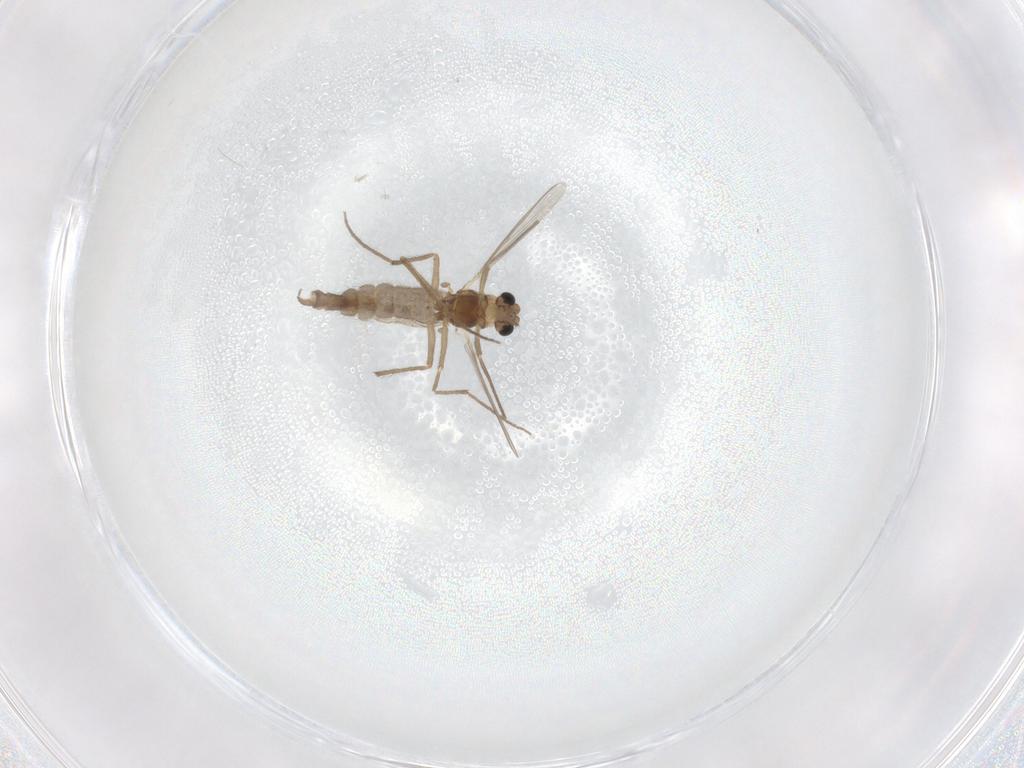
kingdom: Animalia
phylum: Arthropoda
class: Insecta
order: Diptera
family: Chironomidae
